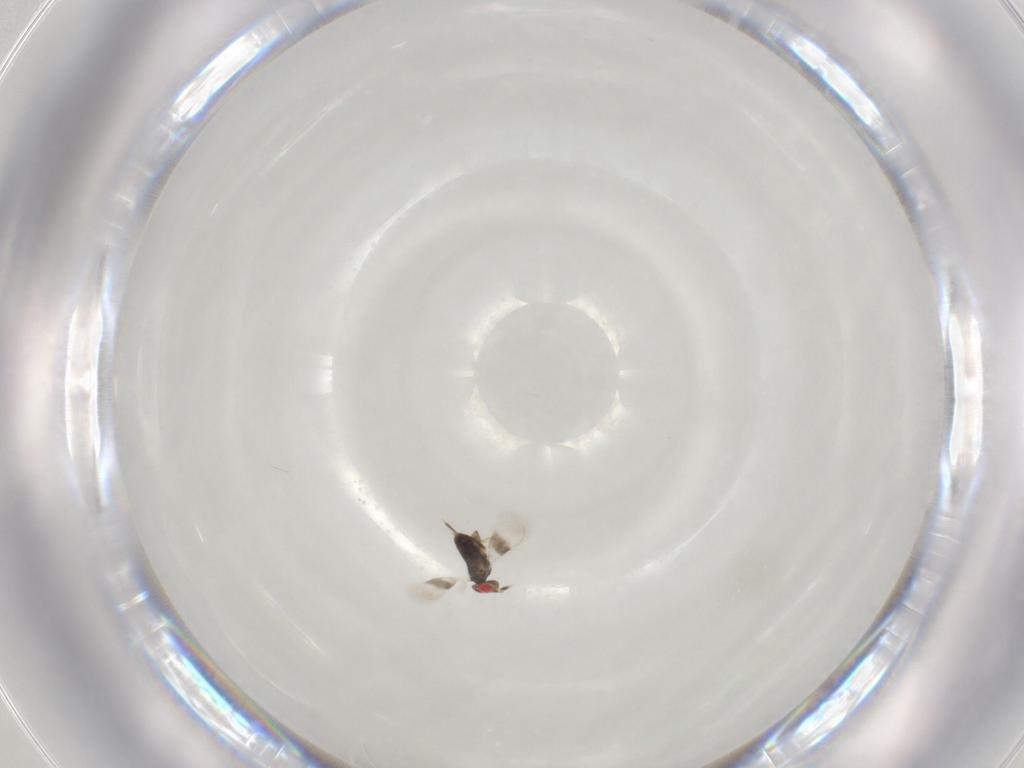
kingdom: Animalia
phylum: Arthropoda
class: Insecta
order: Hymenoptera
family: Azotidae
